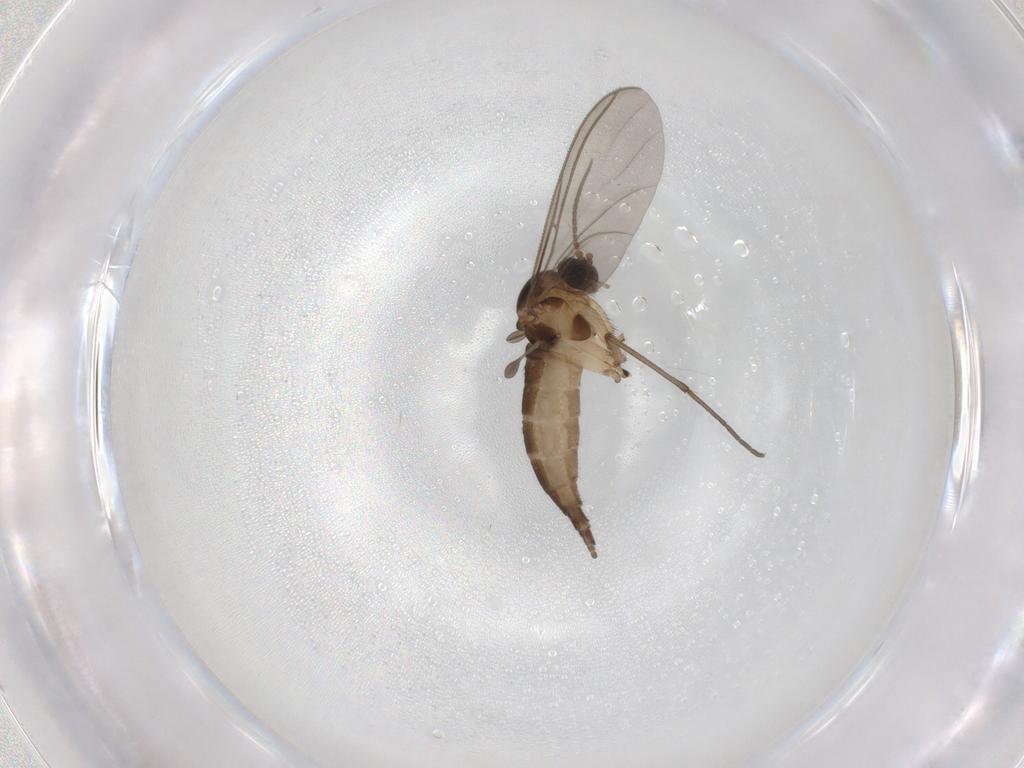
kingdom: Animalia
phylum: Arthropoda
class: Insecta
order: Diptera
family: Sciaridae
